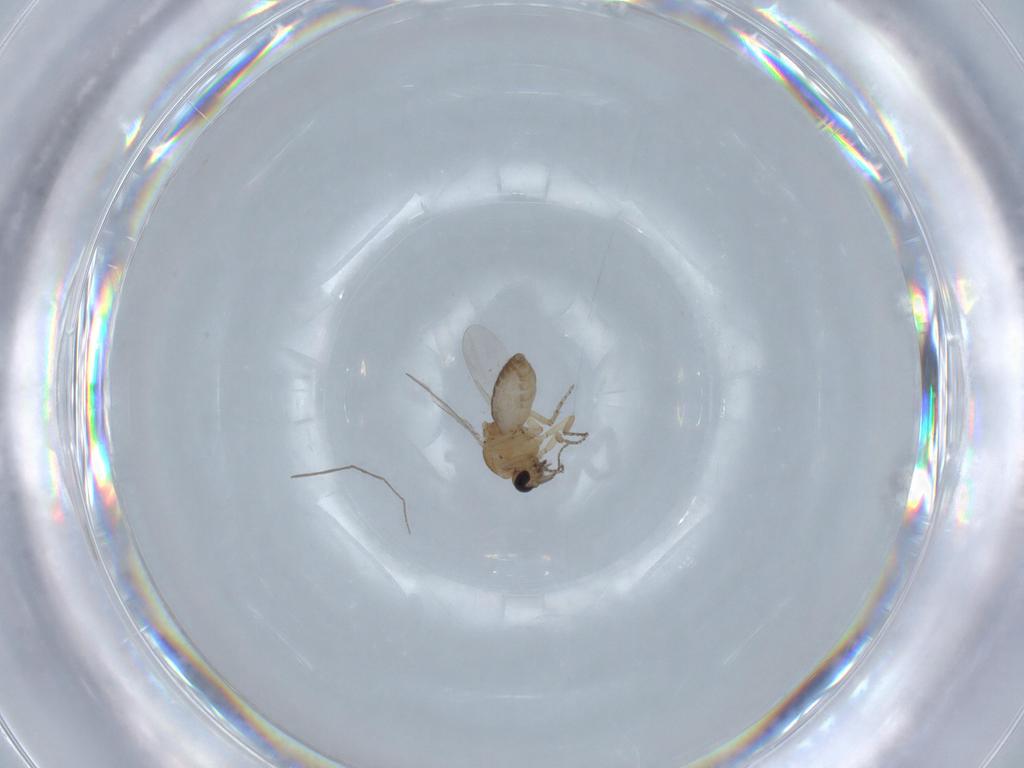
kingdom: Animalia
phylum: Arthropoda
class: Insecta
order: Diptera
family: Ceratopogonidae
